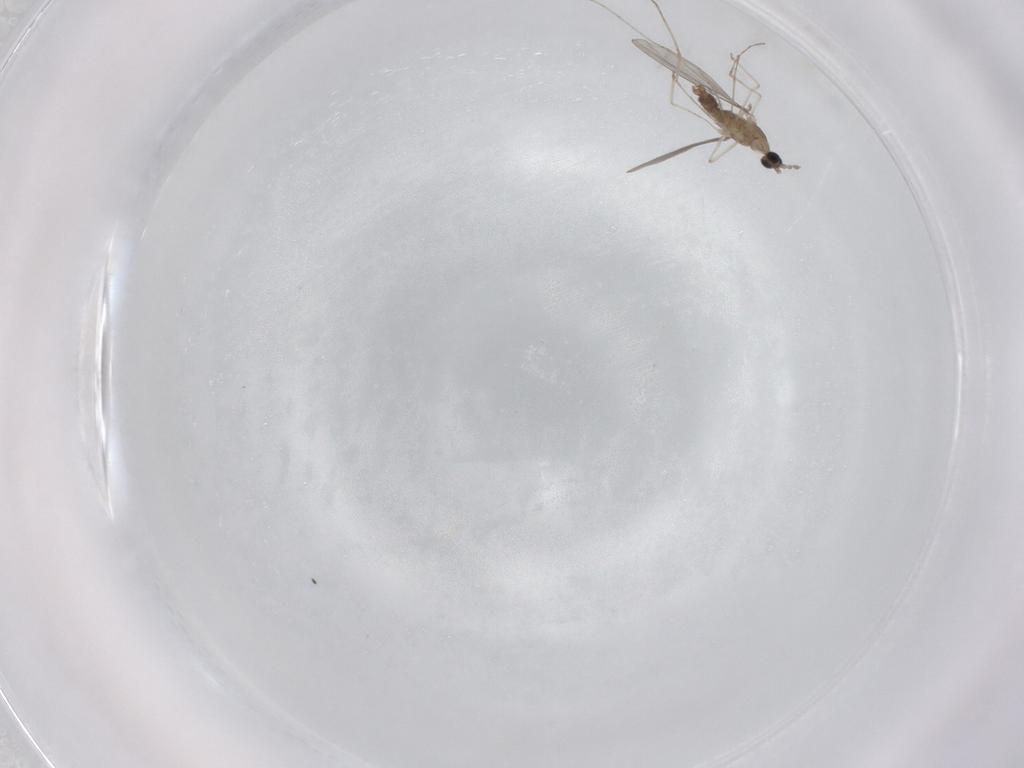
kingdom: Animalia
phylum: Arthropoda
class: Insecta
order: Diptera
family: Cecidomyiidae
